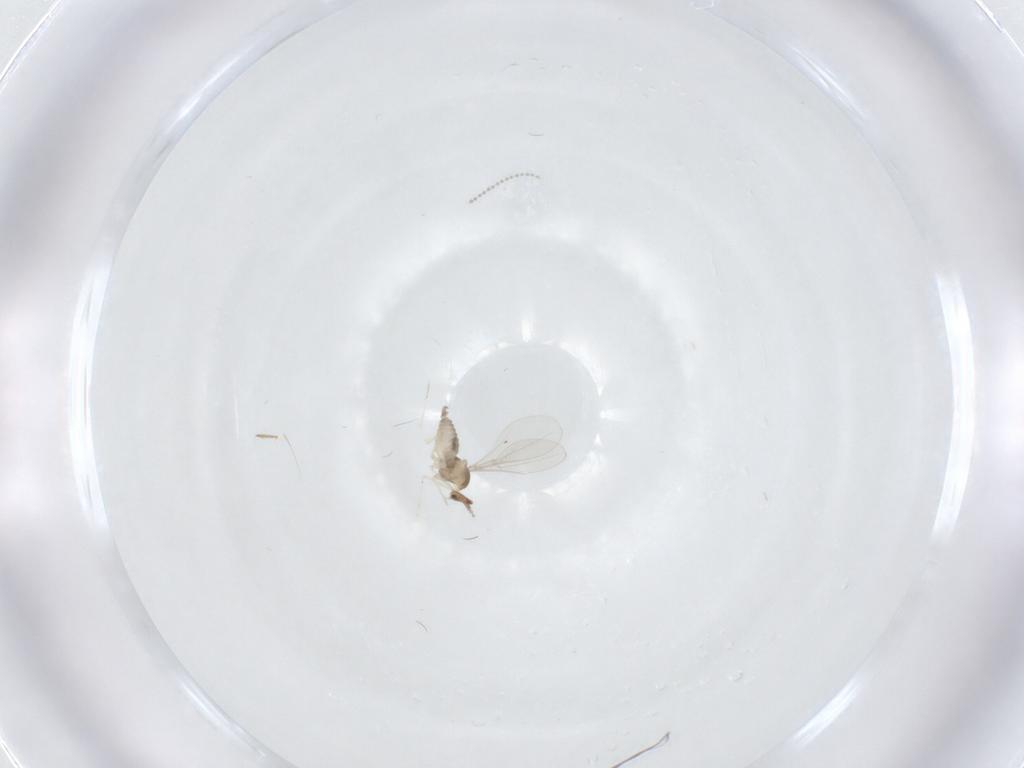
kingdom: Animalia
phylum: Arthropoda
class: Insecta
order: Diptera
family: Cecidomyiidae
